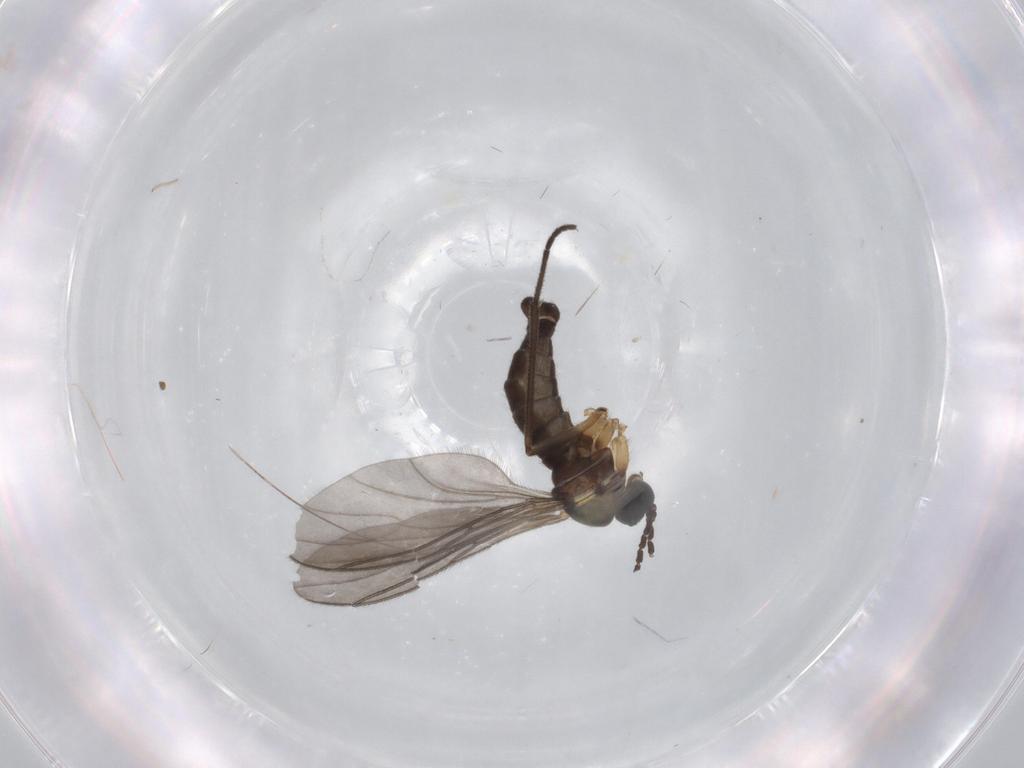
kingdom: Animalia
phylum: Arthropoda
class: Insecta
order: Diptera
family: Sciaridae
